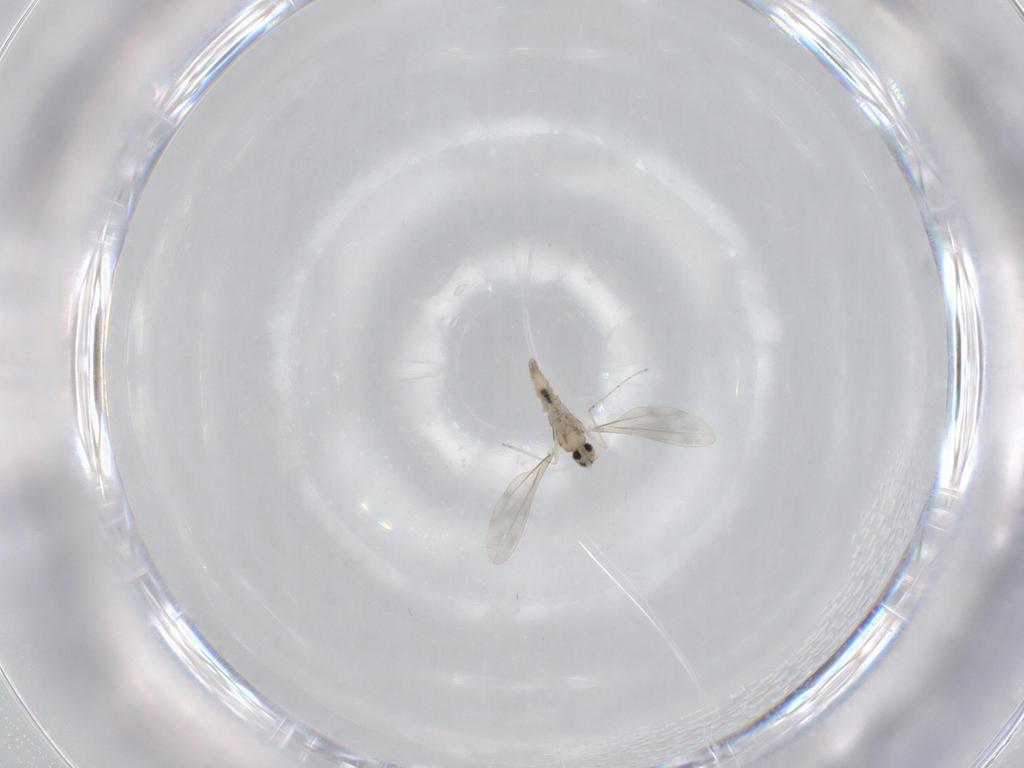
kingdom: Animalia
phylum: Arthropoda
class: Insecta
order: Diptera
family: Cecidomyiidae
